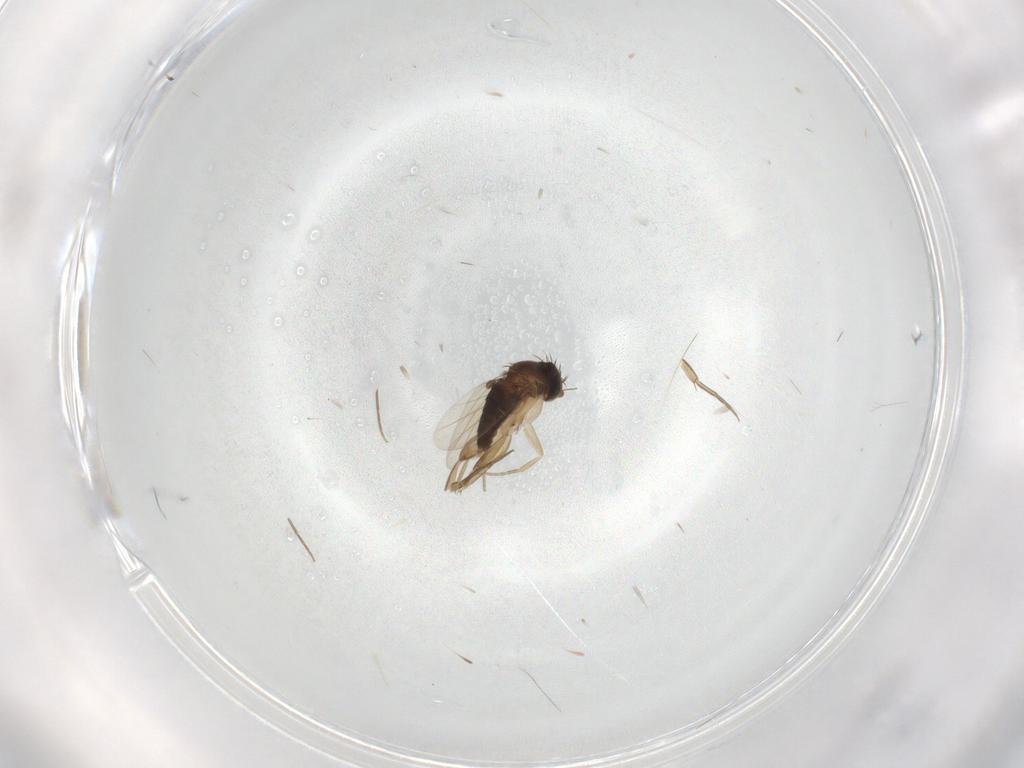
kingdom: Animalia
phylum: Arthropoda
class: Insecta
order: Diptera
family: Phoridae
